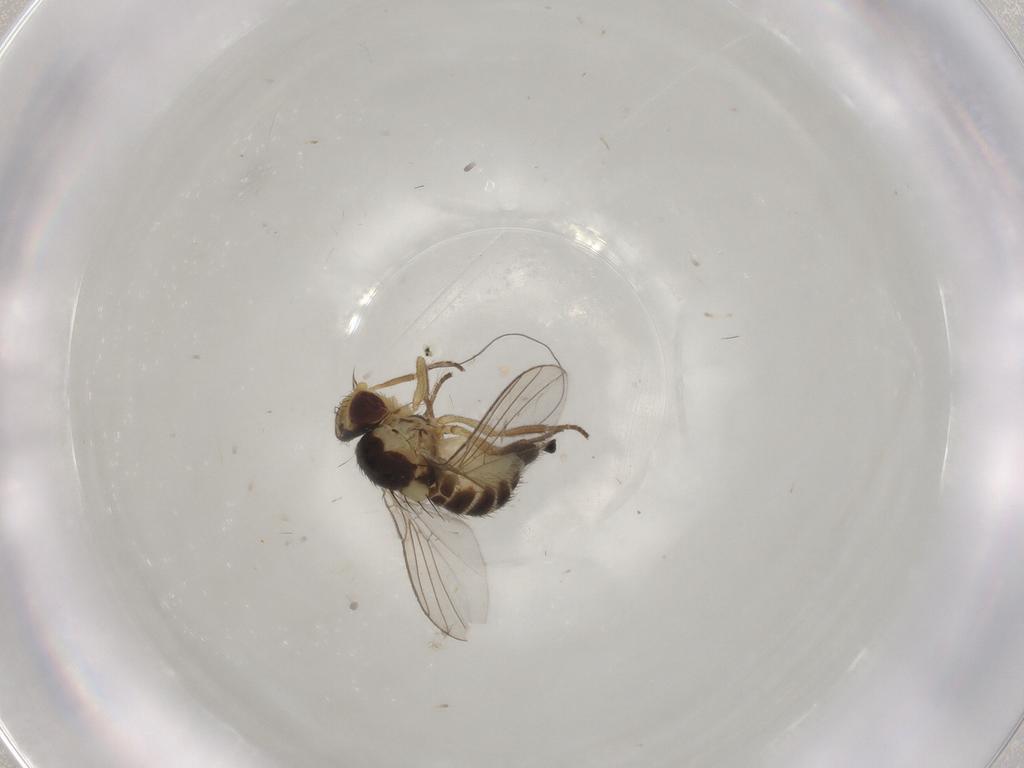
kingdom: Animalia
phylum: Arthropoda
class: Insecta
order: Diptera
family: Agromyzidae
